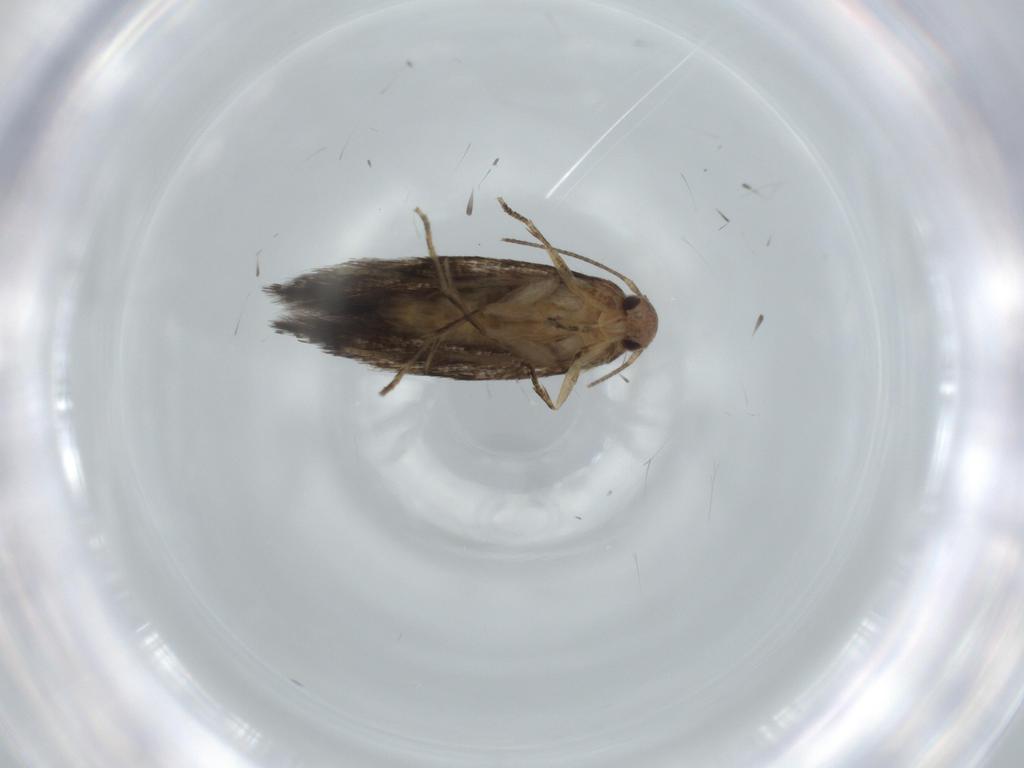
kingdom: Animalia
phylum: Arthropoda
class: Insecta
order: Lepidoptera
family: Gelechiidae
